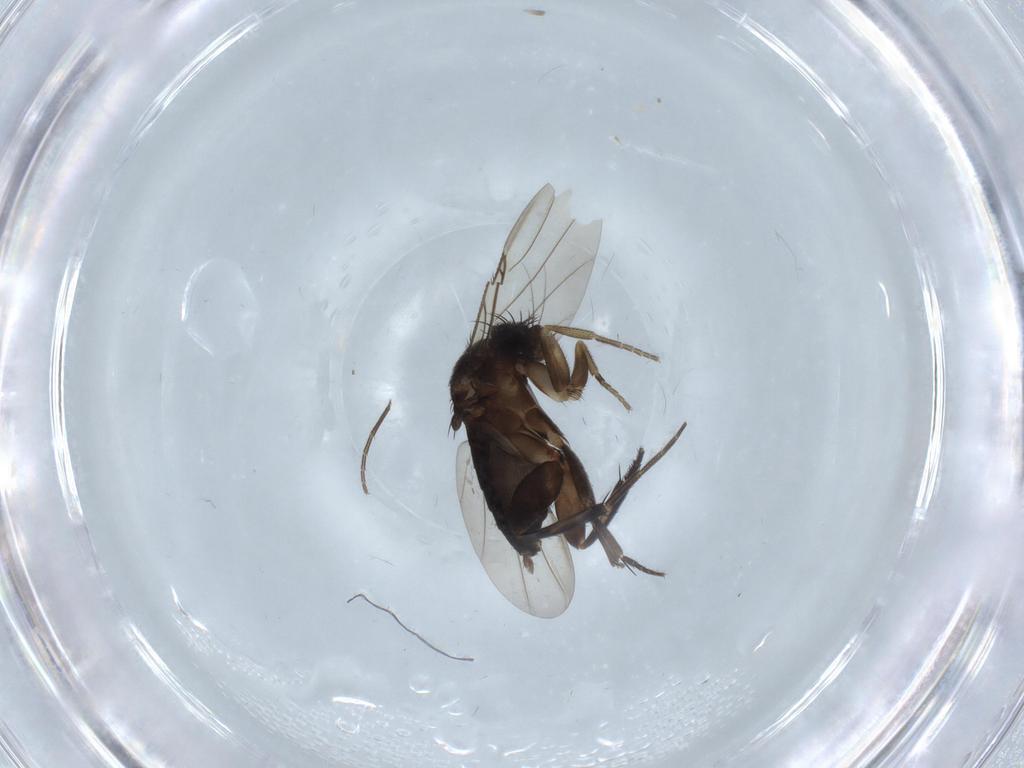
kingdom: Animalia
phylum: Arthropoda
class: Insecta
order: Diptera
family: Phoridae
